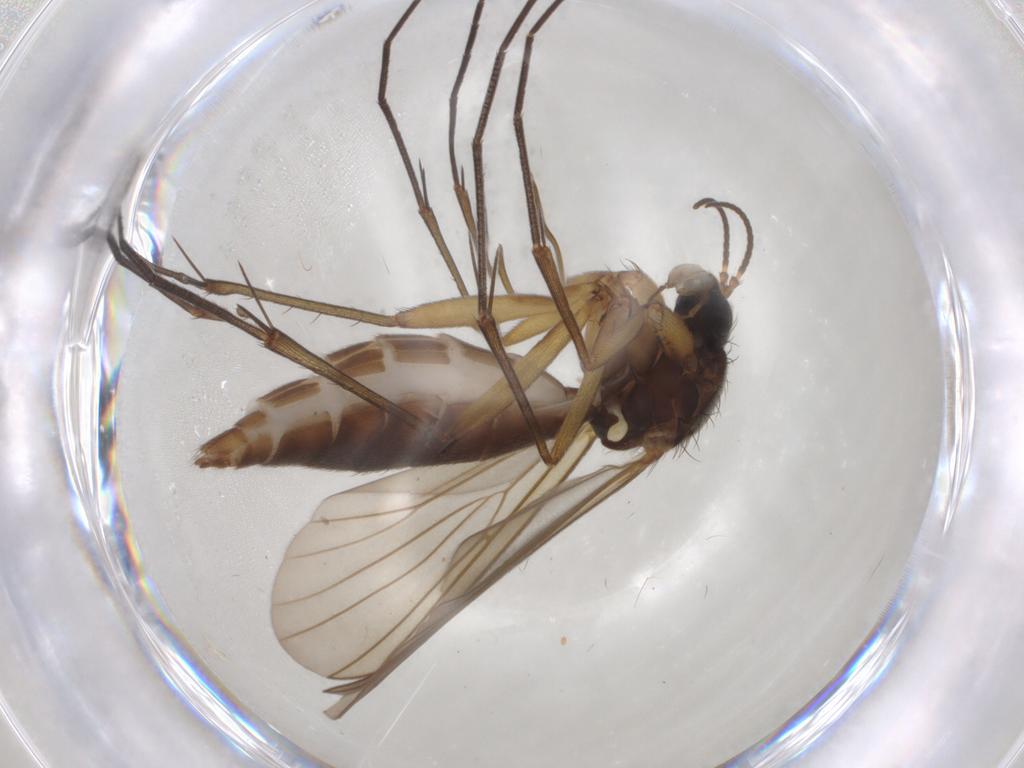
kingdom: Animalia
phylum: Arthropoda
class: Insecta
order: Diptera
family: Mycetophilidae
